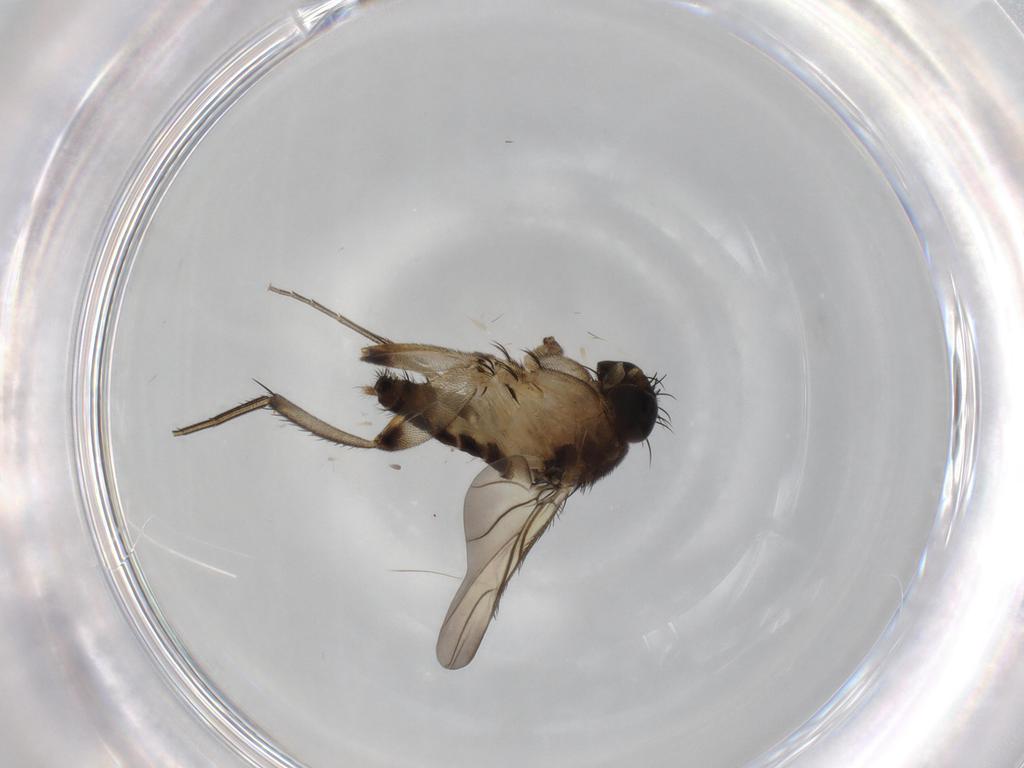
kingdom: Animalia
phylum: Arthropoda
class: Insecta
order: Diptera
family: Phoridae
